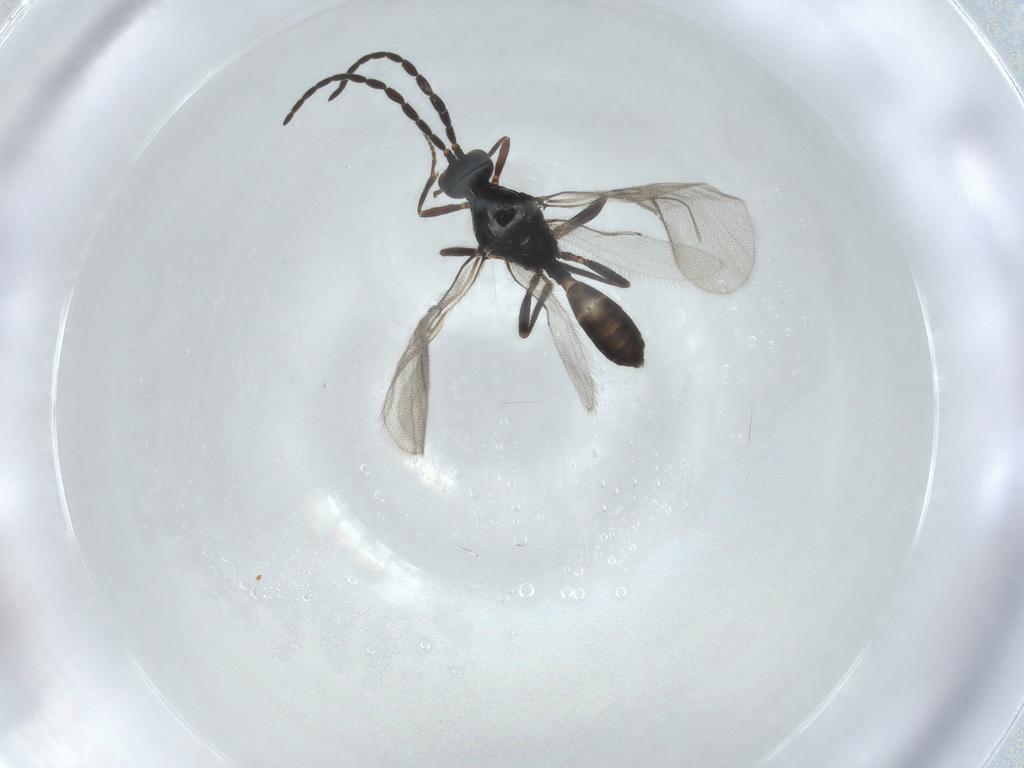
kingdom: Animalia
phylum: Arthropoda
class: Insecta
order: Hymenoptera
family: Braconidae
